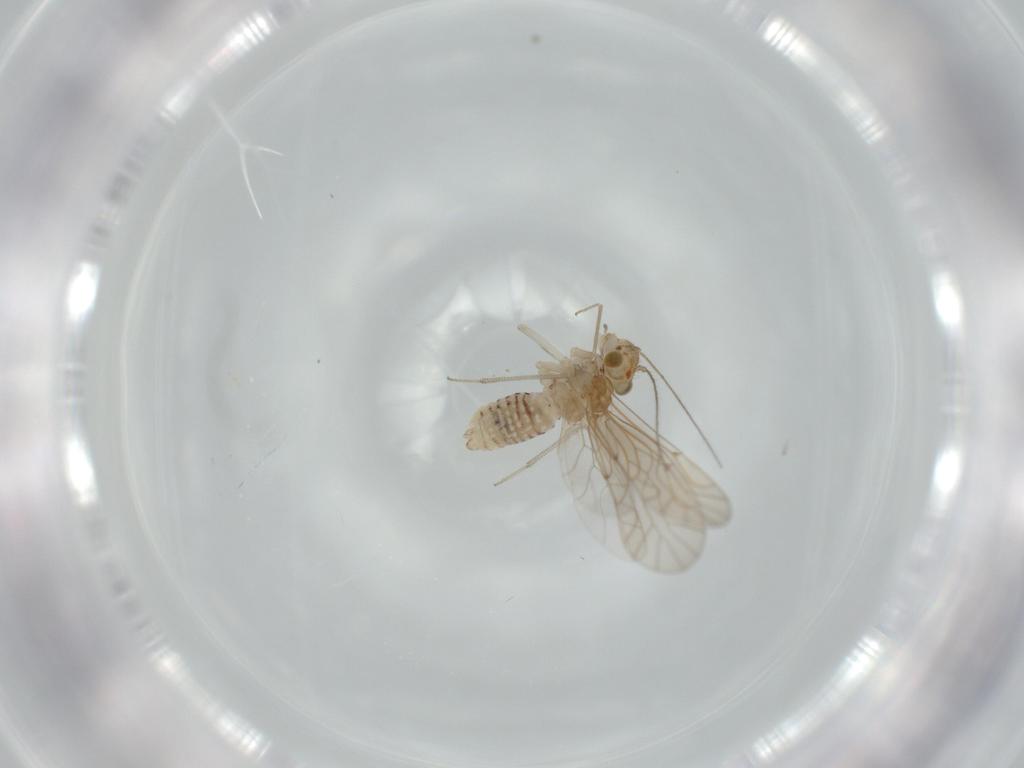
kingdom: Animalia
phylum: Arthropoda
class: Insecta
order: Psocodea
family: Lachesillidae
